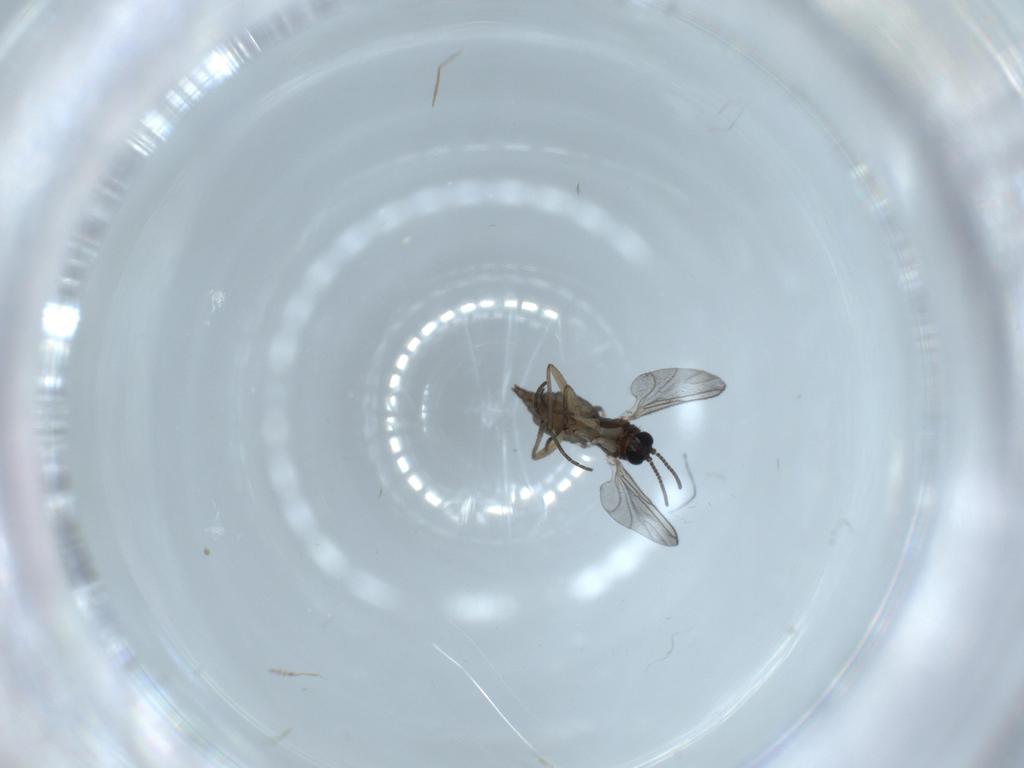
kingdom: Animalia
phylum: Arthropoda
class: Insecta
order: Diptera
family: Sciaridae
